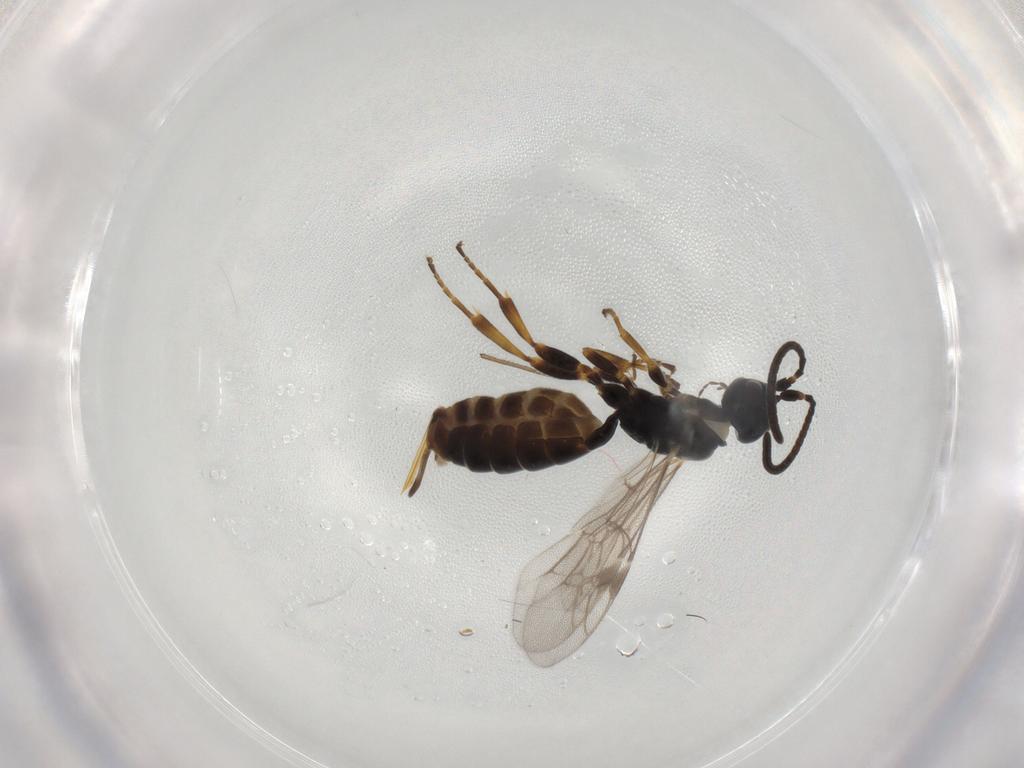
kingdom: Animalia
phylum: Arthropoda
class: Insecta
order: Hymenoptera
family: Ichneumonidae
